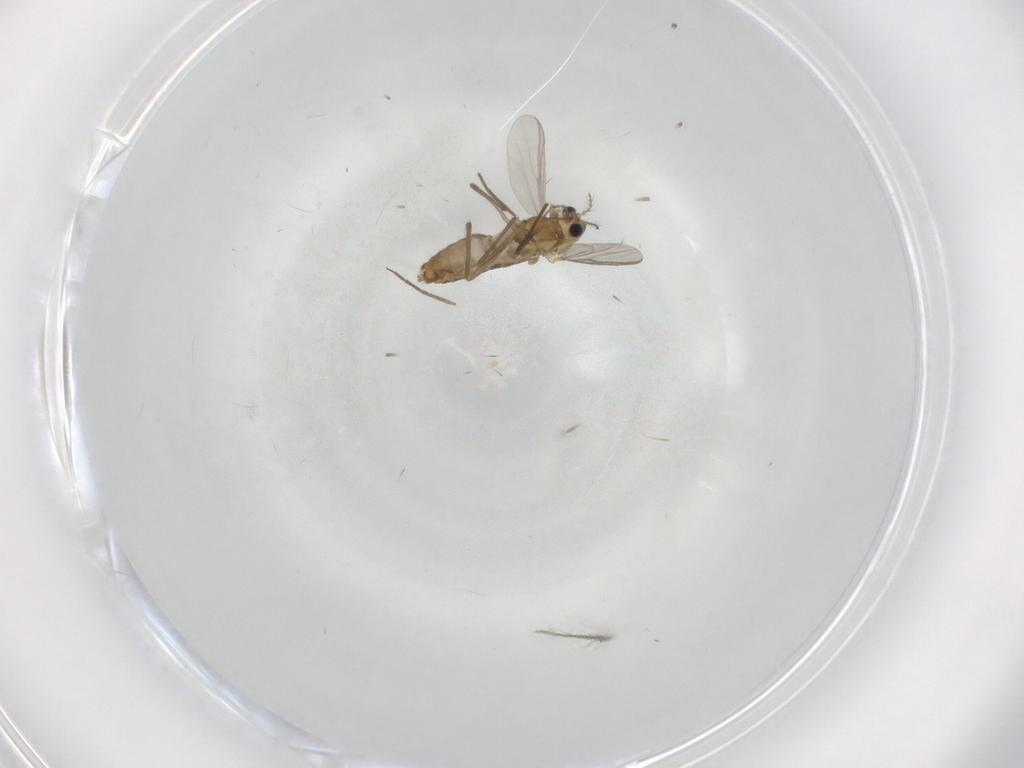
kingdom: Animalia
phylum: Arthropoda
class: Insecta
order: Diptera
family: Chironomidae
